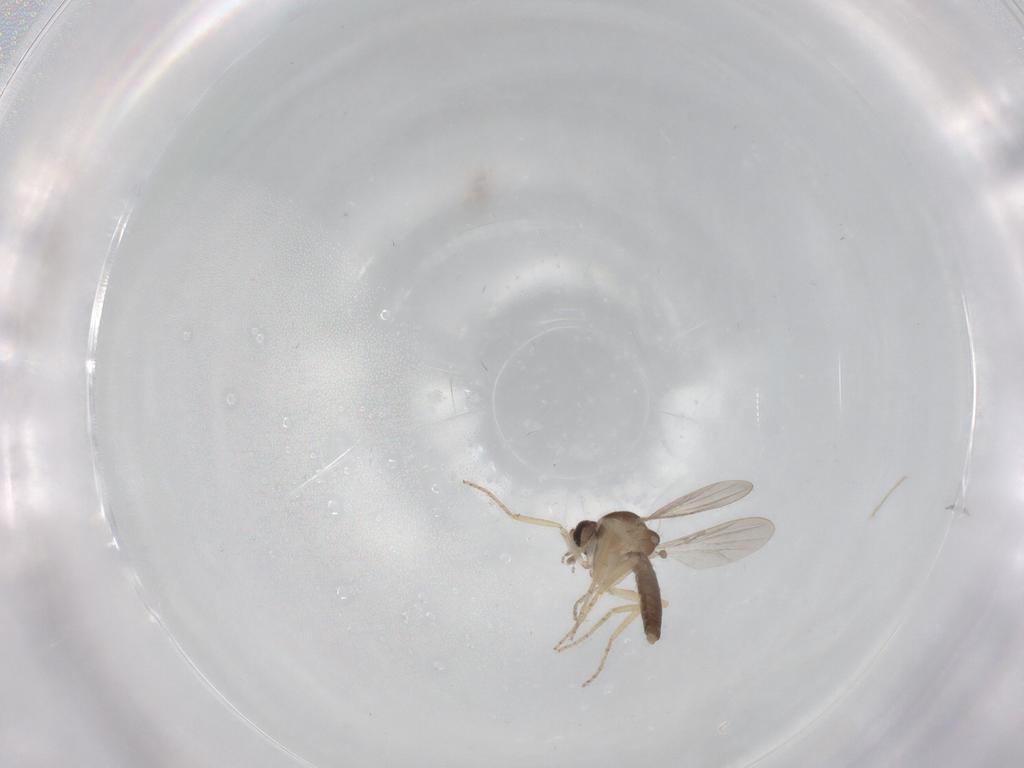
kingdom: Animalia
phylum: Arthropoda
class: Insecta
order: Diptera
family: Ceratopogonidae
